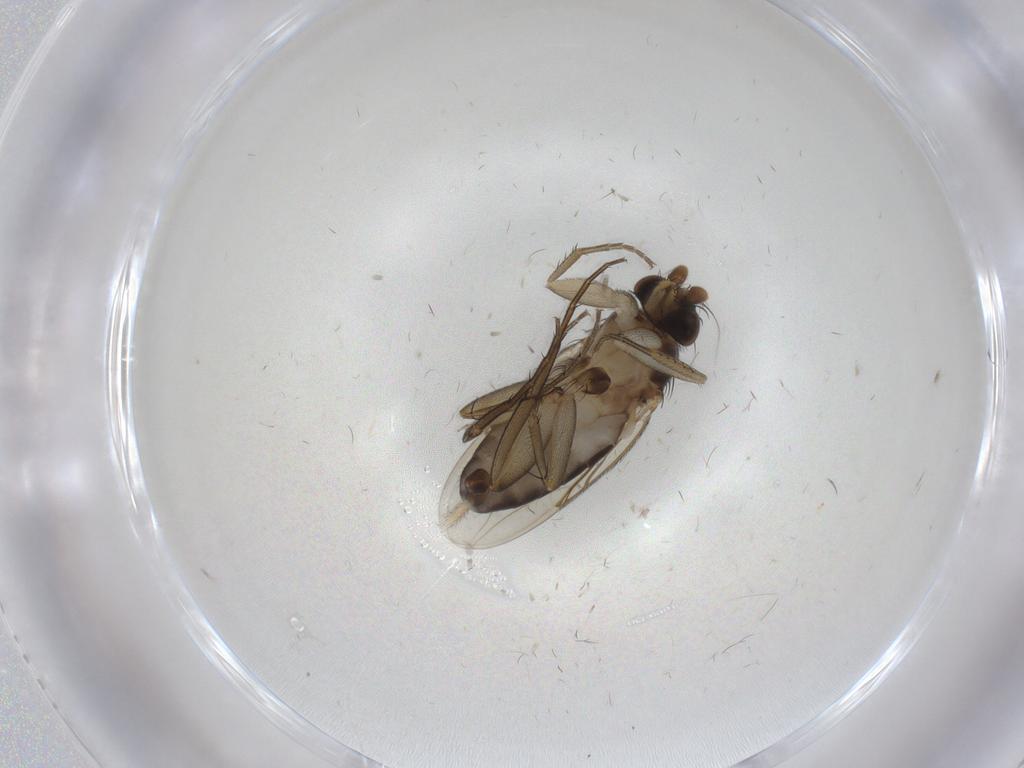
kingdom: Animalia
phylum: Arthropoda
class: Insecta
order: Diptera
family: Phoridae
